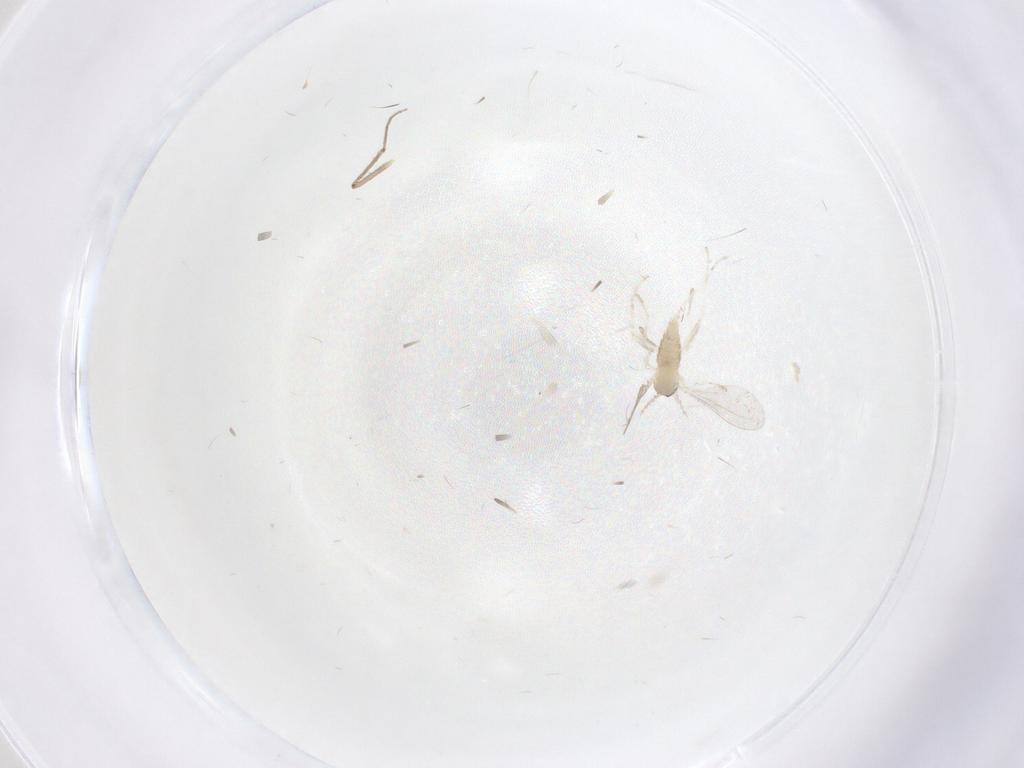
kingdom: Animalia
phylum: Arthropoda
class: Insecta
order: Diptera
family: Cecidomyiidae
